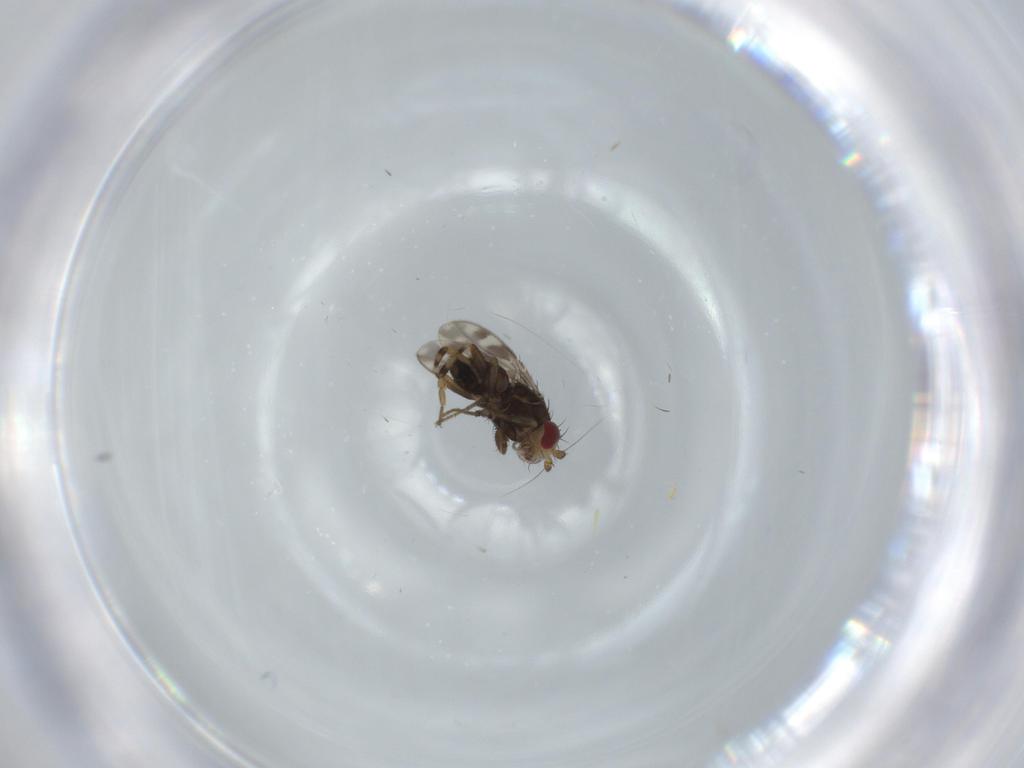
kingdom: Animalia
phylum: Arthropoda
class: Insecta
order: Diptera
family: Sphaeroceridae
